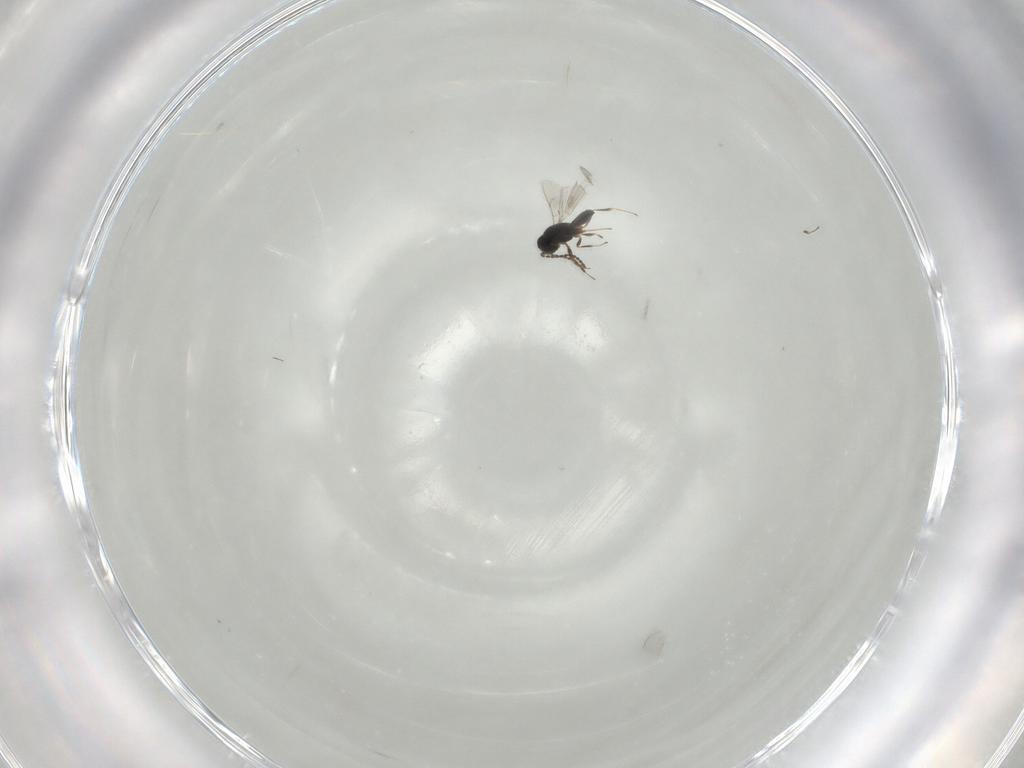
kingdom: Animalia
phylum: Arthropoda
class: Insecta
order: Hymenoptera
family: Scelionidae
